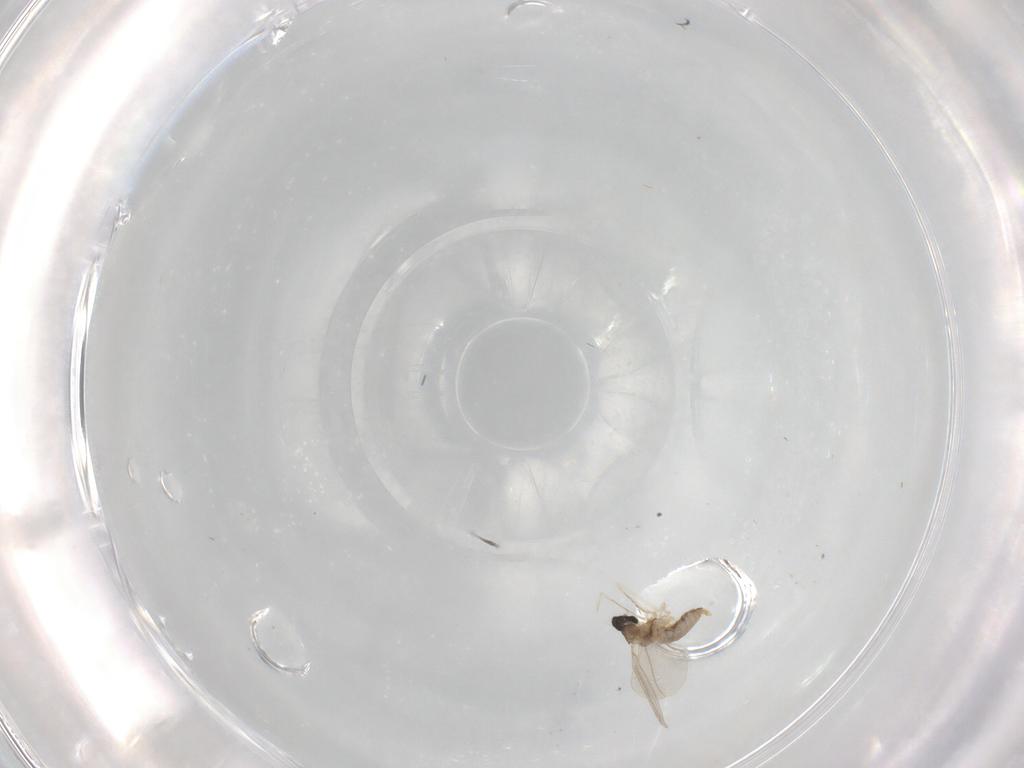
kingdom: Animalia
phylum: Arthropoda
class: Insecta
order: Diptera
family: Cecidomyiidae
